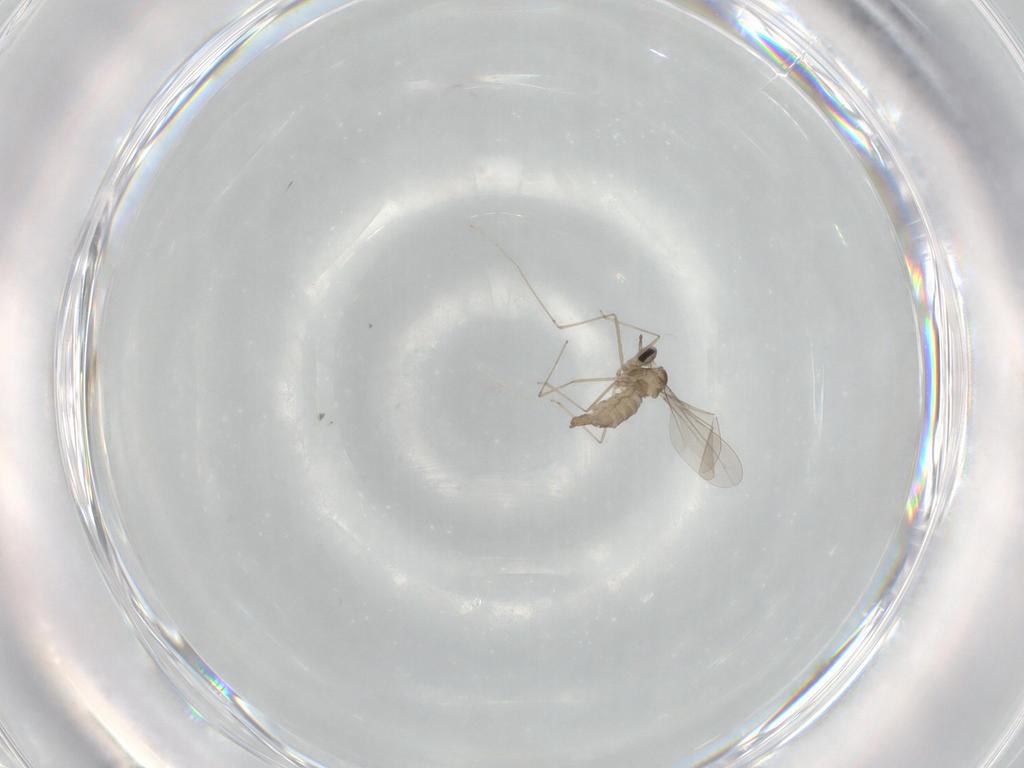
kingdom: Animalia
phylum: Arthropoda
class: Insecta
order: Diptera
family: Cecidomyiidae
